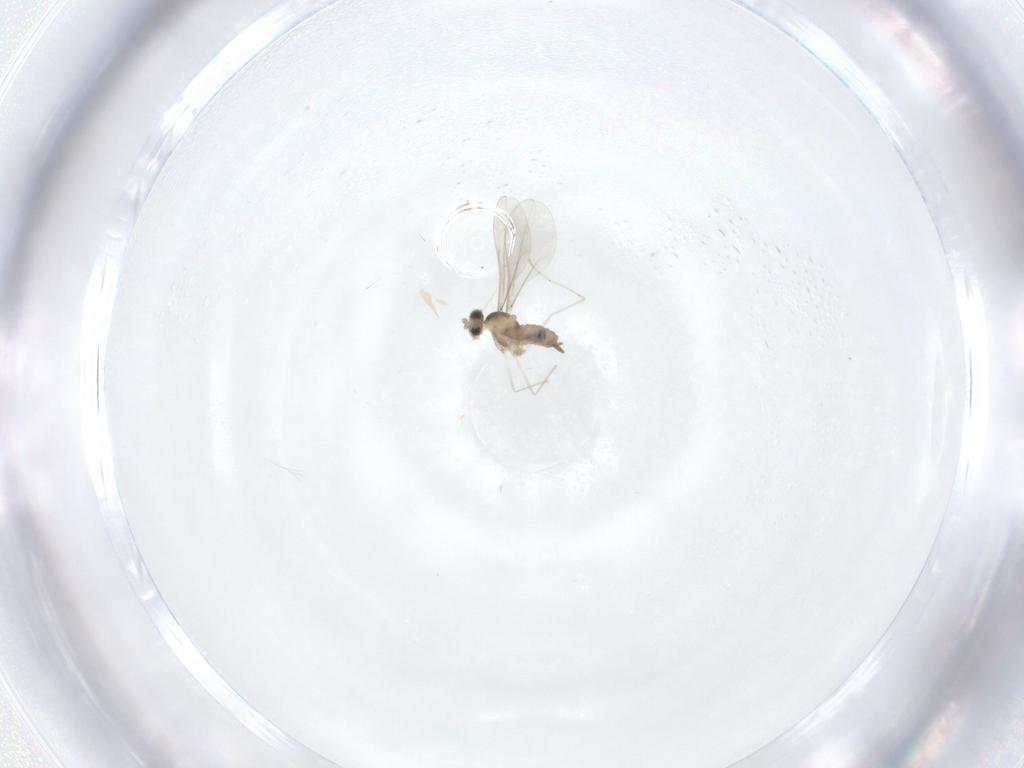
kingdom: Animalia
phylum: Arthropoda
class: Insecta
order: Diptera
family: Cecidomyiidae
